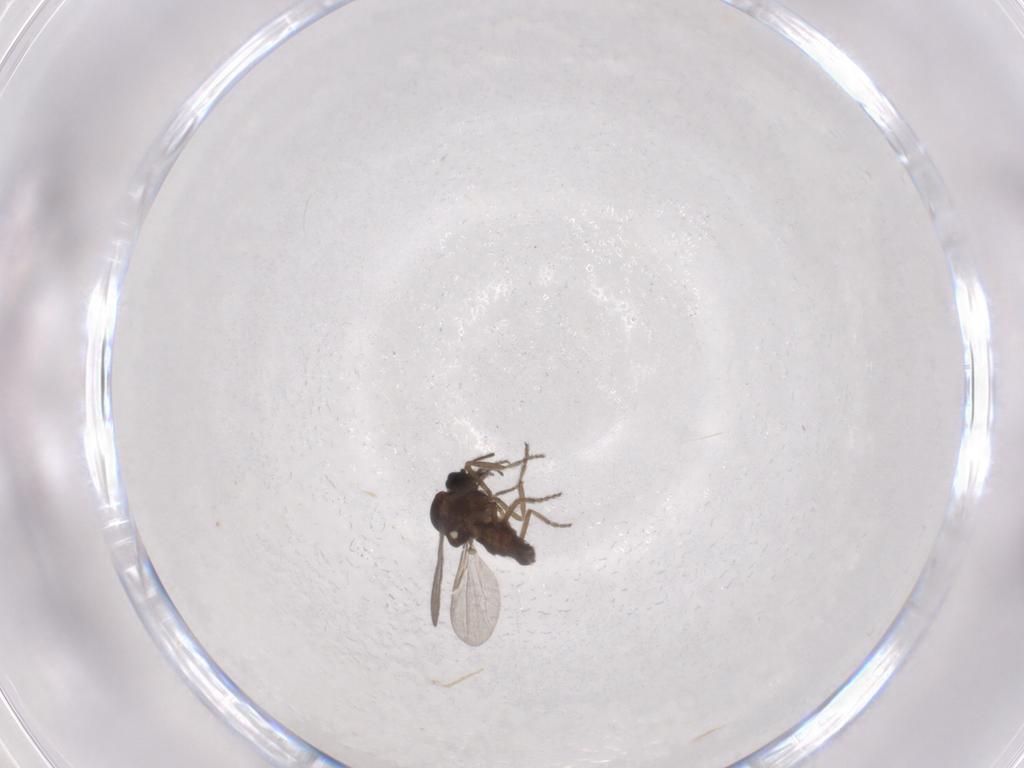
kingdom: Animalia
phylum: Arthropoda
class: Insecta
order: Diptera
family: Ceratopogonidae
